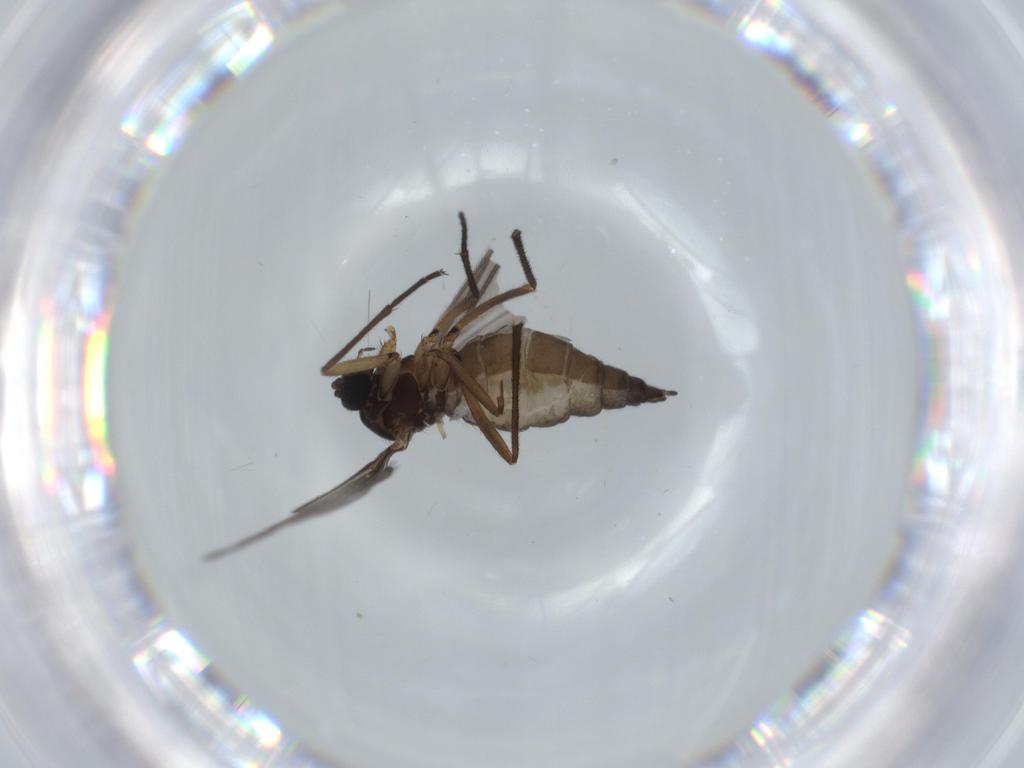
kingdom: Animalia
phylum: Arthropoda
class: Insecta
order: Diptera
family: Sciaridae
